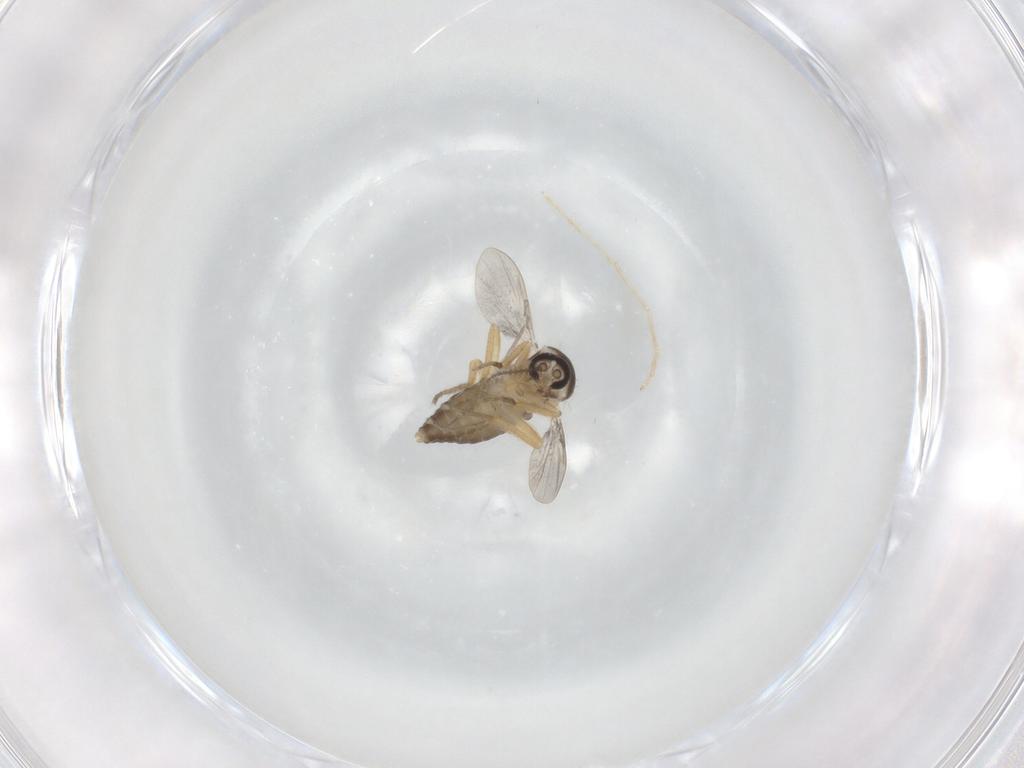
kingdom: Animalia
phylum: Arthropoda
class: Insecta
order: Diptera
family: Ceratopogonidae
